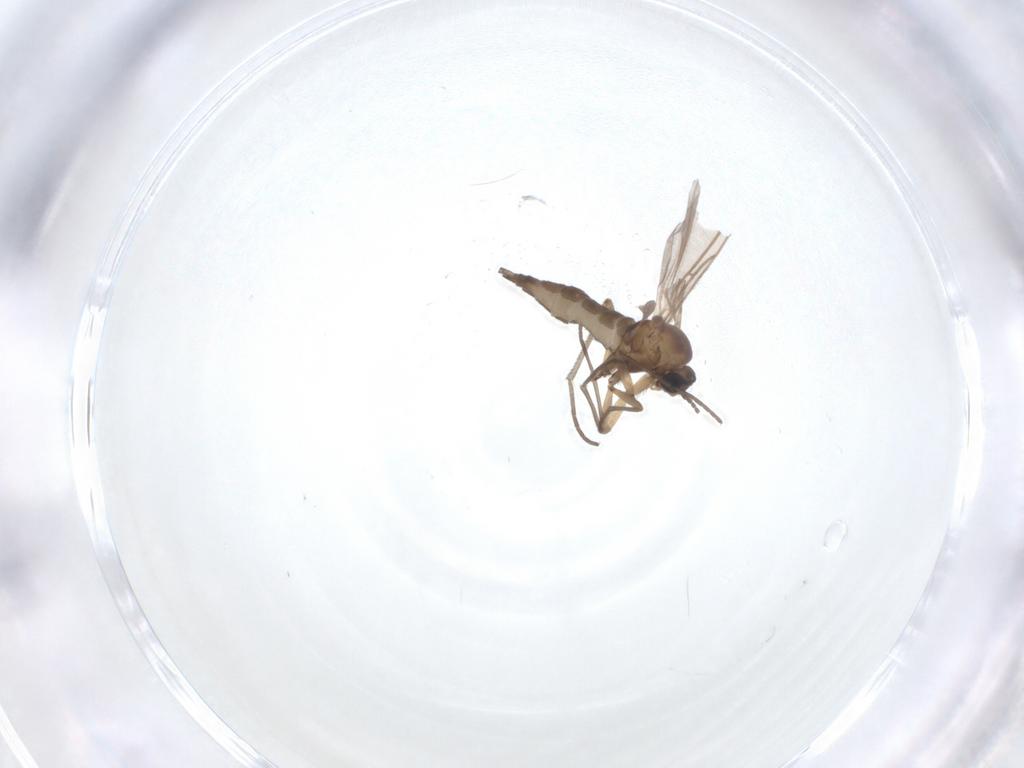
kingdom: Animalia
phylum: Arthropoda
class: Insecta
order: Diptera
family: Sciaridae
